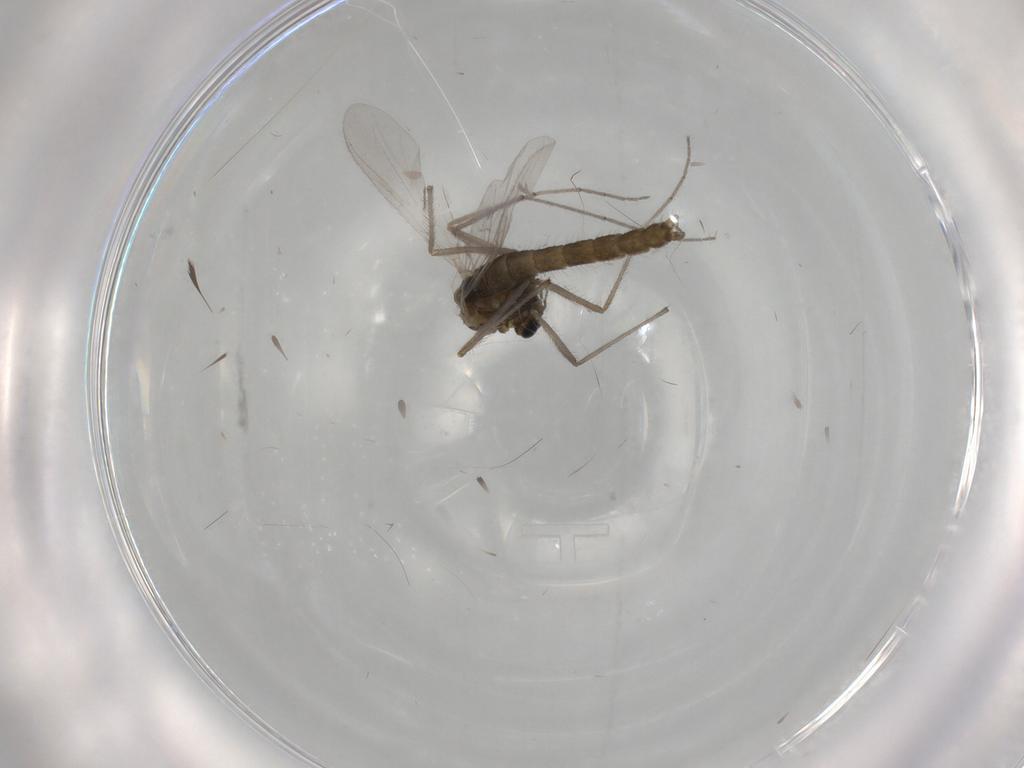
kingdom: Animalia
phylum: Arthropoda
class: Insecta
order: Diptera
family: Chironomidae
